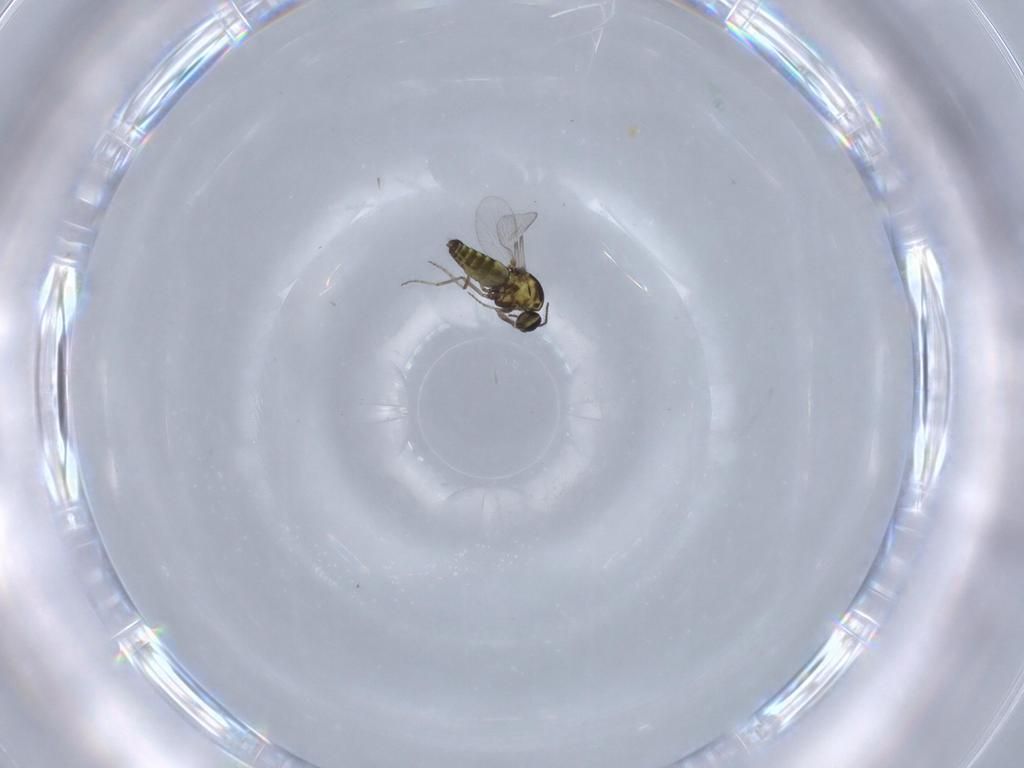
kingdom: Animalia
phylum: Arthropoda
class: Insecta
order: Diptera
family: Ceratopogonidae
